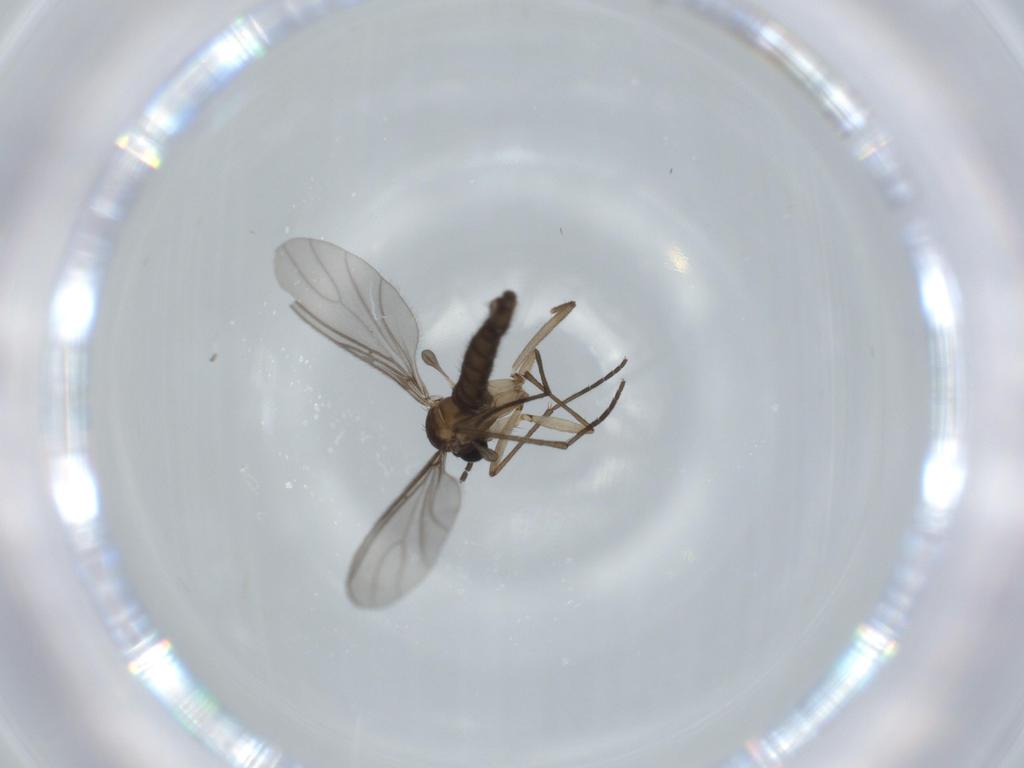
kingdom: Animalia
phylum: Arthropoda
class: Insecta
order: Diptera
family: Sciaridae
